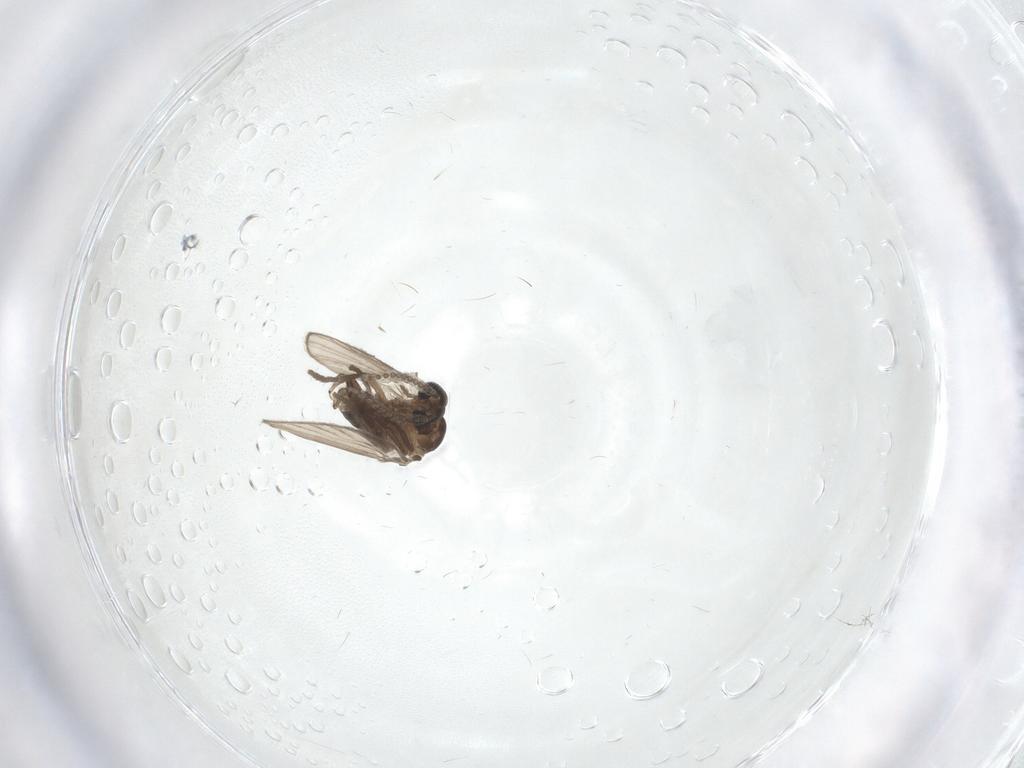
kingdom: Animalia
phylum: Arthropoda
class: Insecta
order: Diptera
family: Psychodidae
